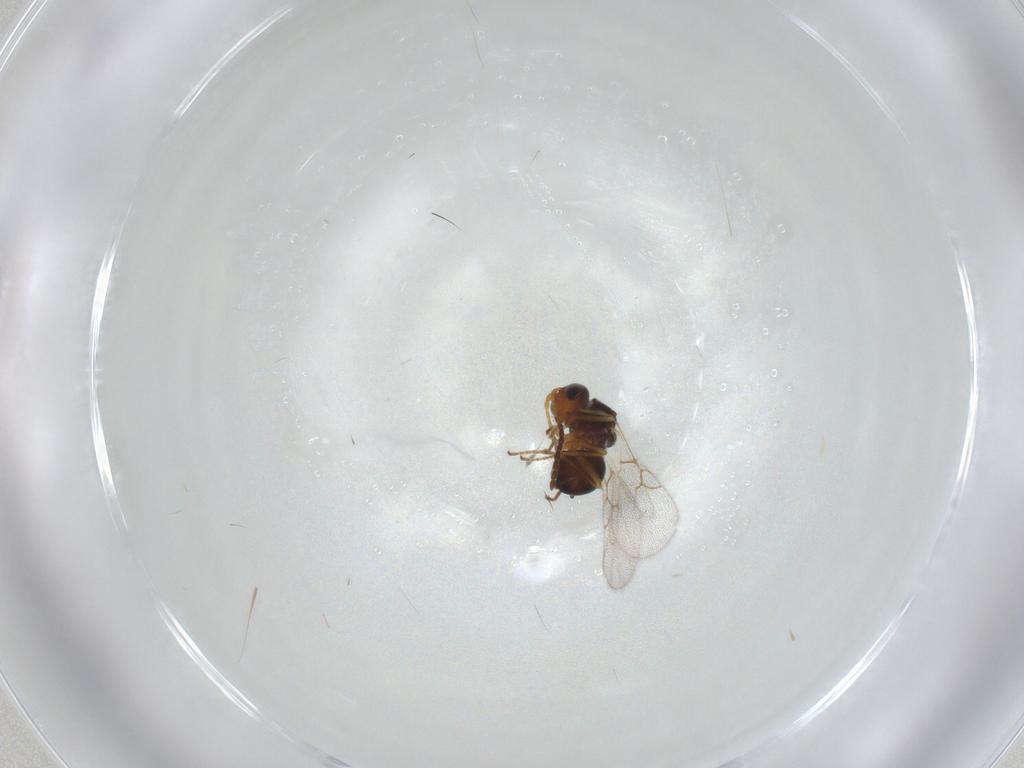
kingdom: Animalia
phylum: Arthropoda
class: Insecta
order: Hymenoptera
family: Figitidae
